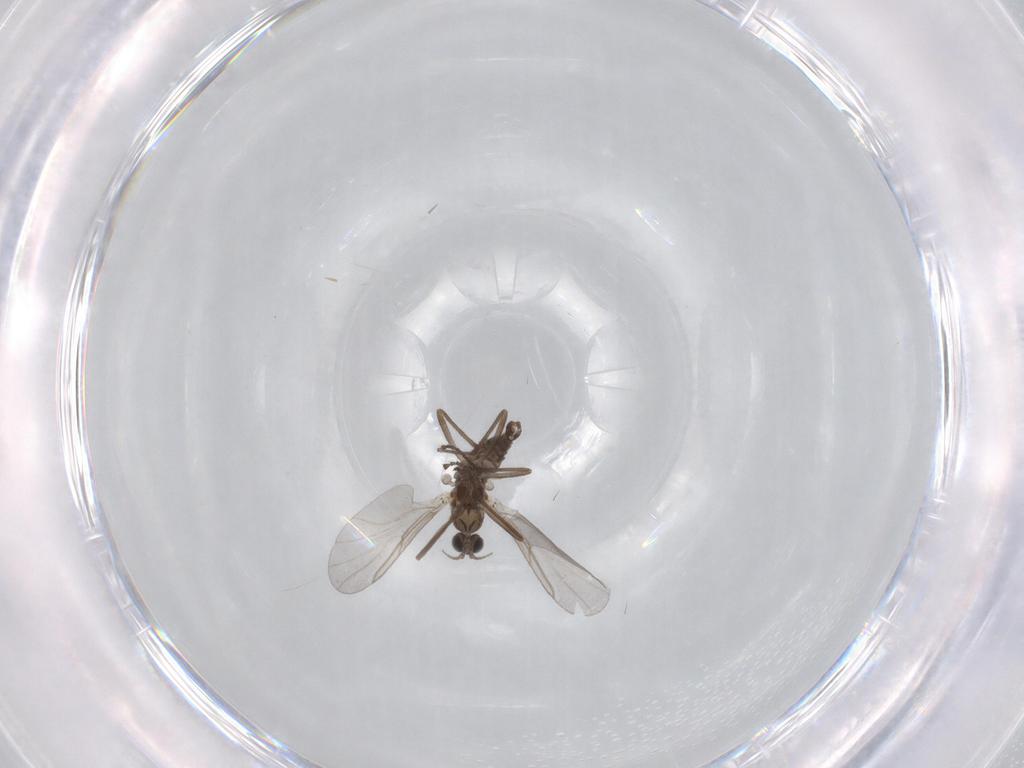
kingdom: Animalia
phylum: Arthropoda
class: Insecta
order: Diptera
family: Cecidomyiidae
